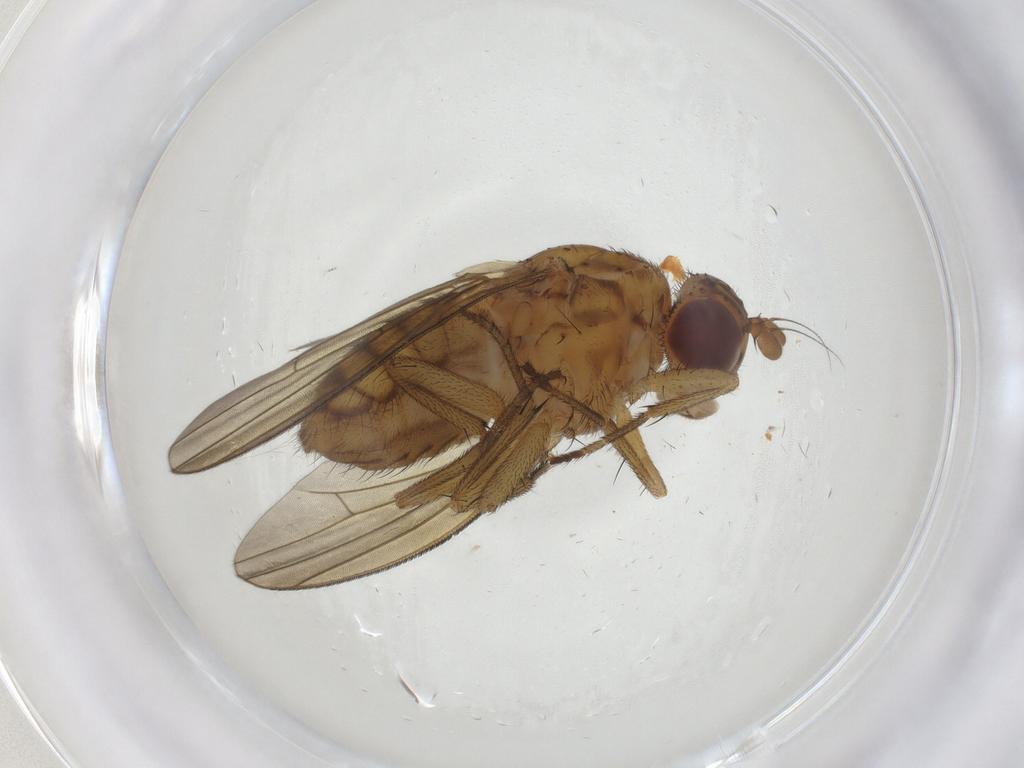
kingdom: Animalia
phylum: Arthropoda
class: Insecta
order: Diptera
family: Lauxaniidae
